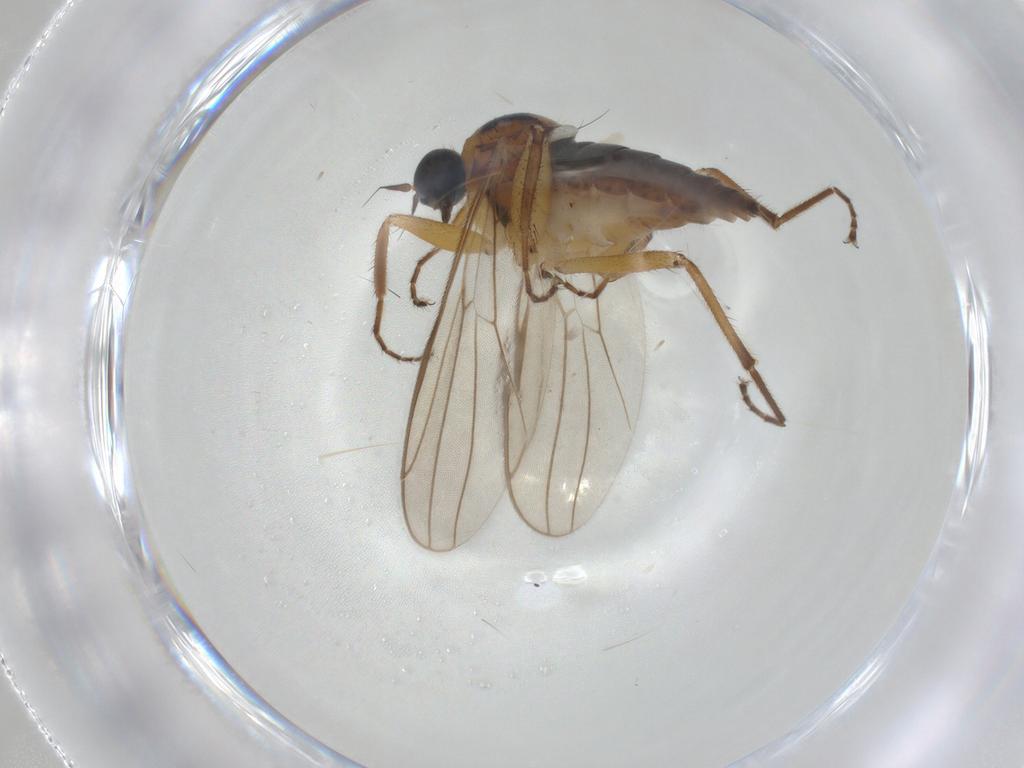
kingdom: Animalia
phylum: Arthropoda
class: Insecta
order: Diptera
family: Hybotidae
